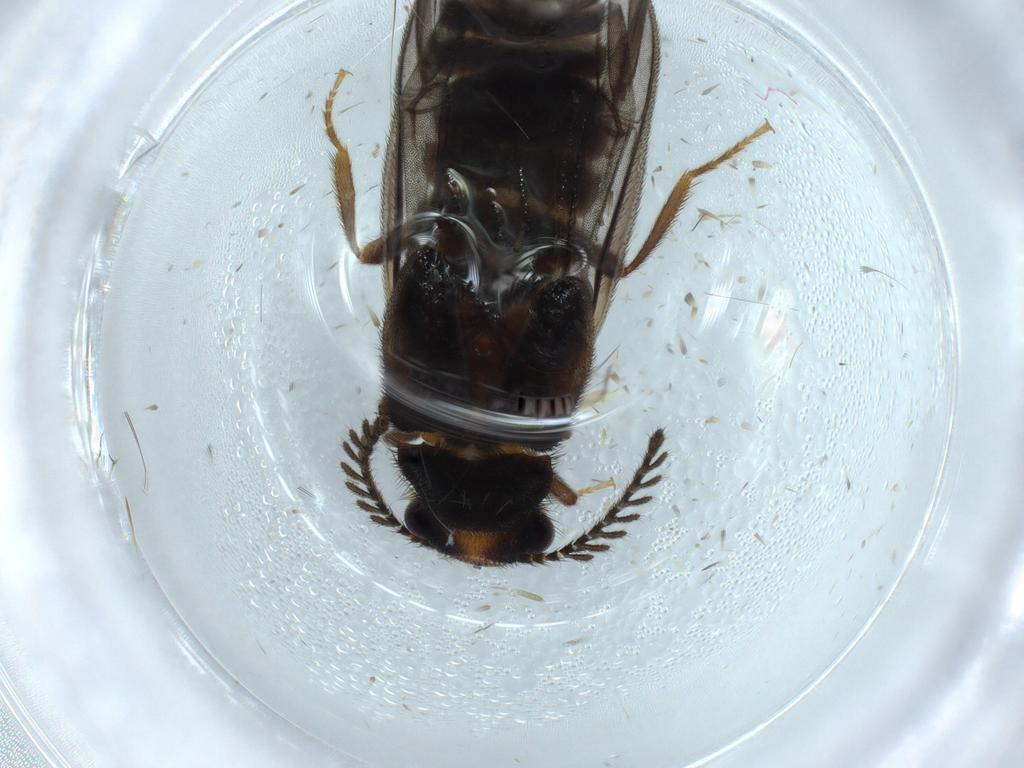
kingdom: Animalia
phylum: Arthropoda
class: Insecta
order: Coleoptera
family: Phengodidae
